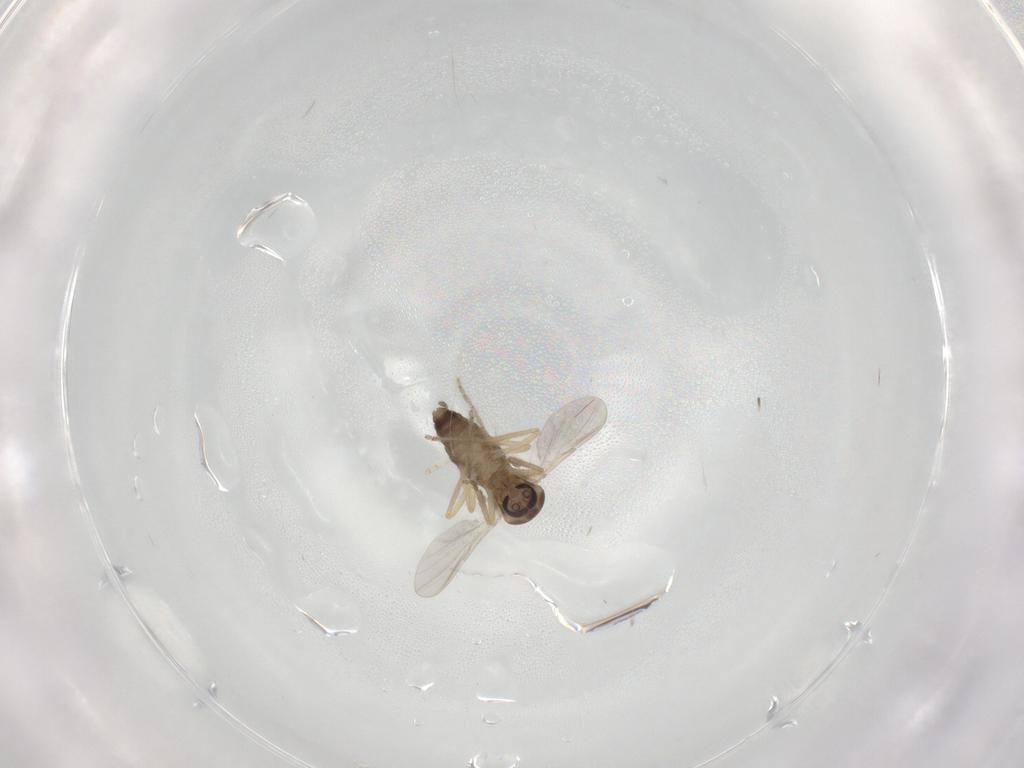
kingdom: Animalia
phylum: Arthropoda
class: Insecta
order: Diptera
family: Ceratopogonidae
